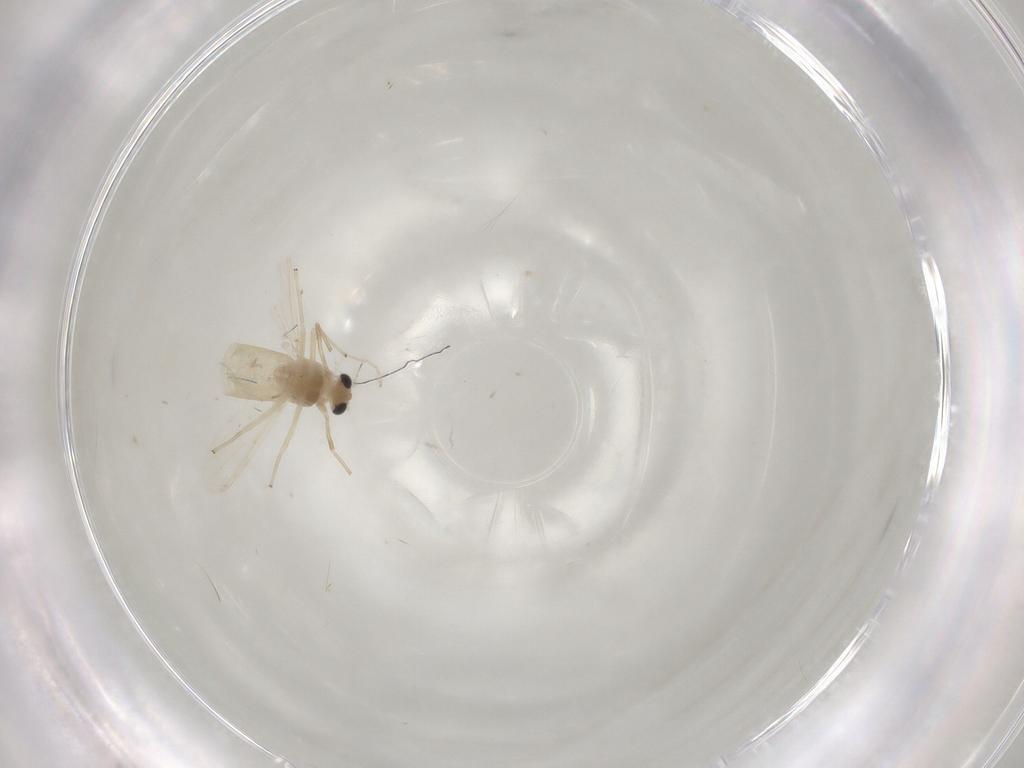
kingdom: Animalia
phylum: Arthropoda
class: Insecta
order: Diptera
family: Chironomidae
